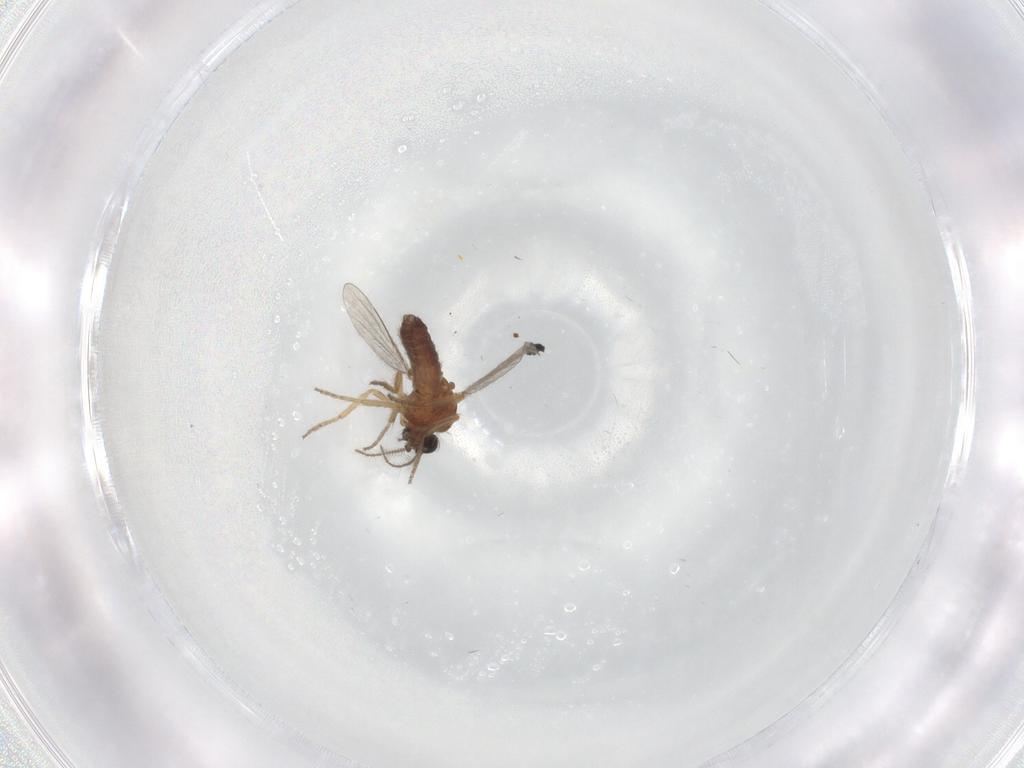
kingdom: Animalia
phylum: Arthropoda
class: Insecta
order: Diptera
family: Ceratopogonidae
